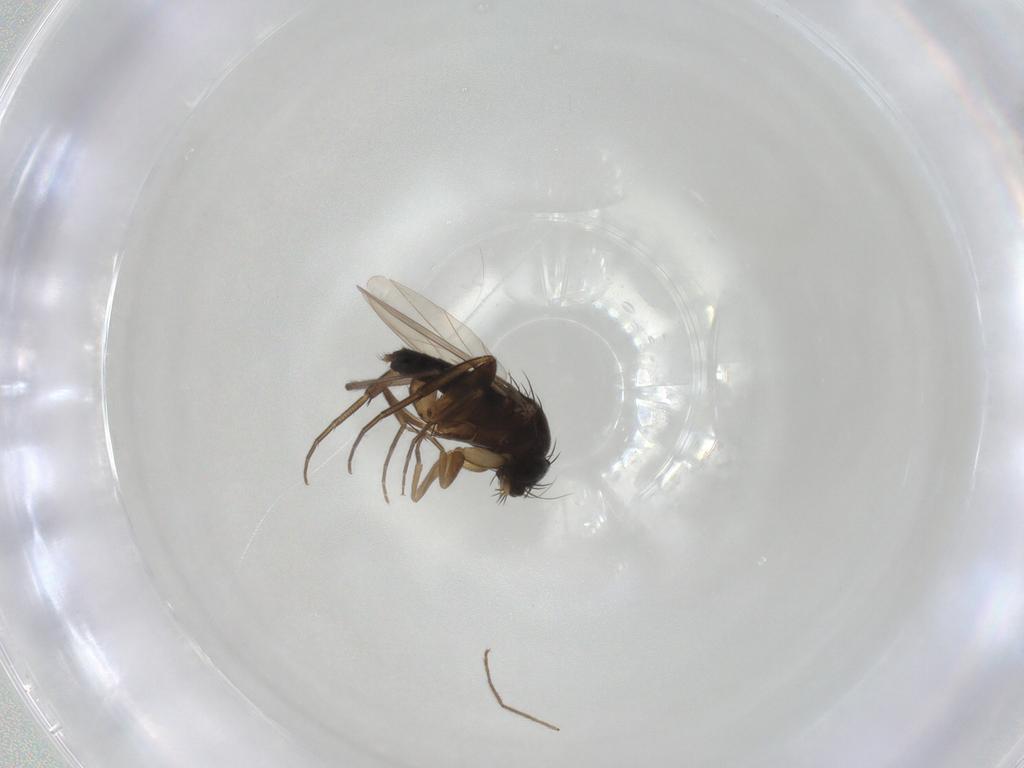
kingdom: Animalia
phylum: Arthropoda
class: Insecta
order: Diptera
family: Chironomidae
